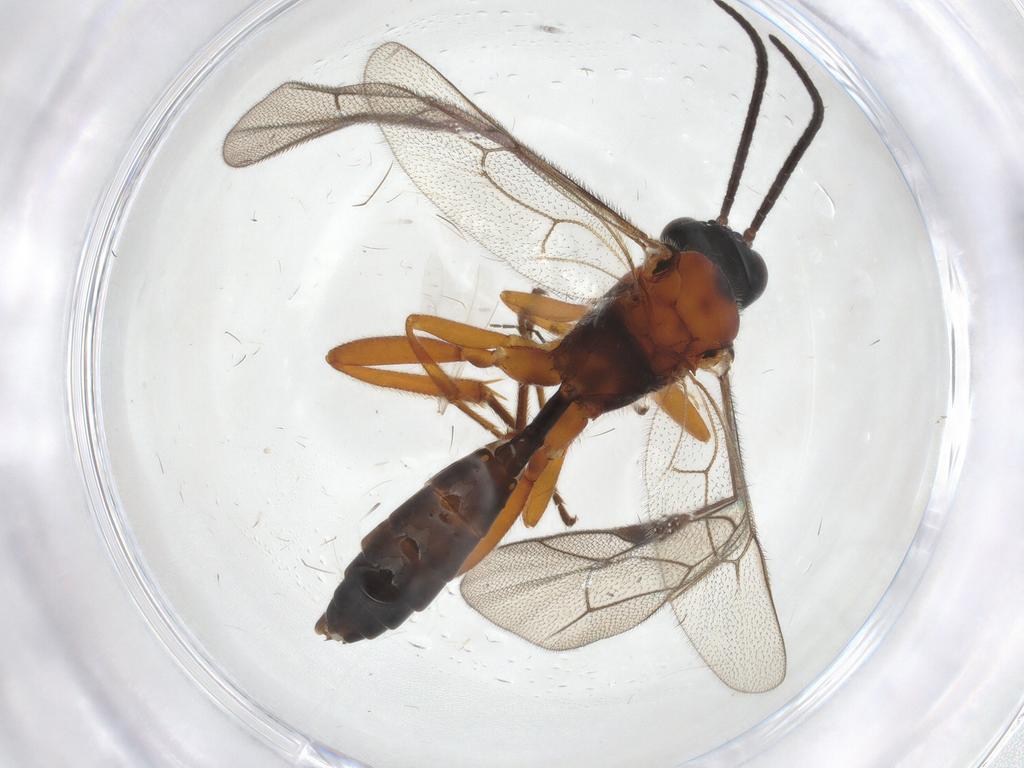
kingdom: Animalia
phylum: Arthropoda
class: Insecta
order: Hymenoptera
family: Ichneumonidae
